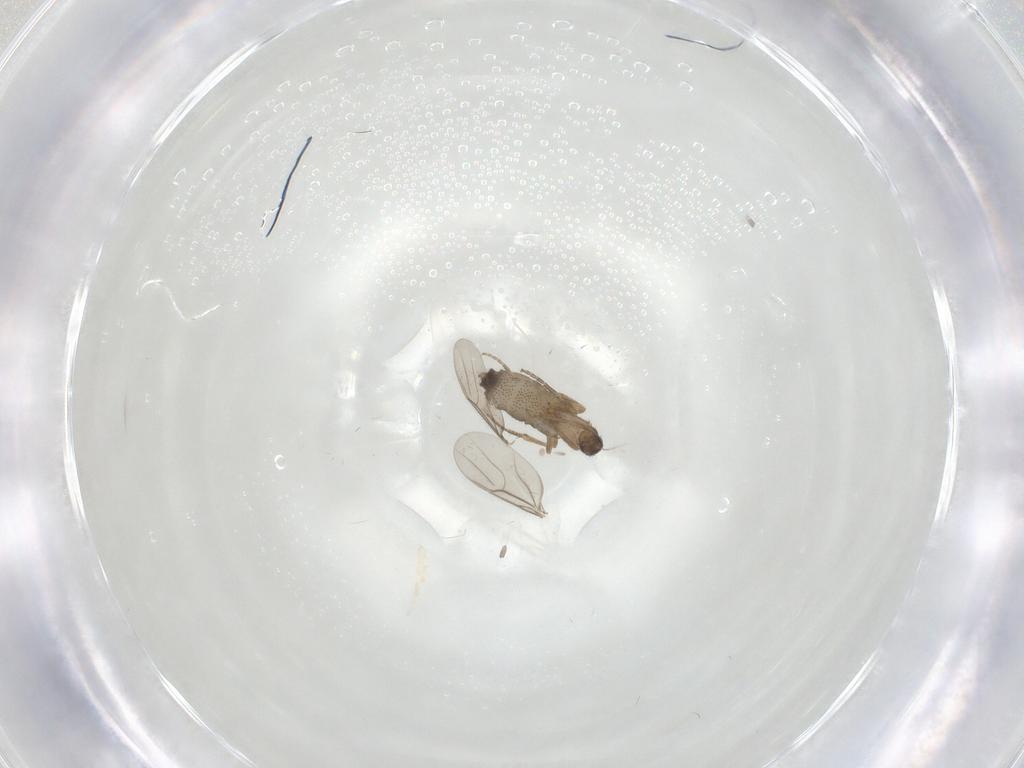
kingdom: Animalia
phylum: Arthropoda
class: Insecta
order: Diptera
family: Phoridae
